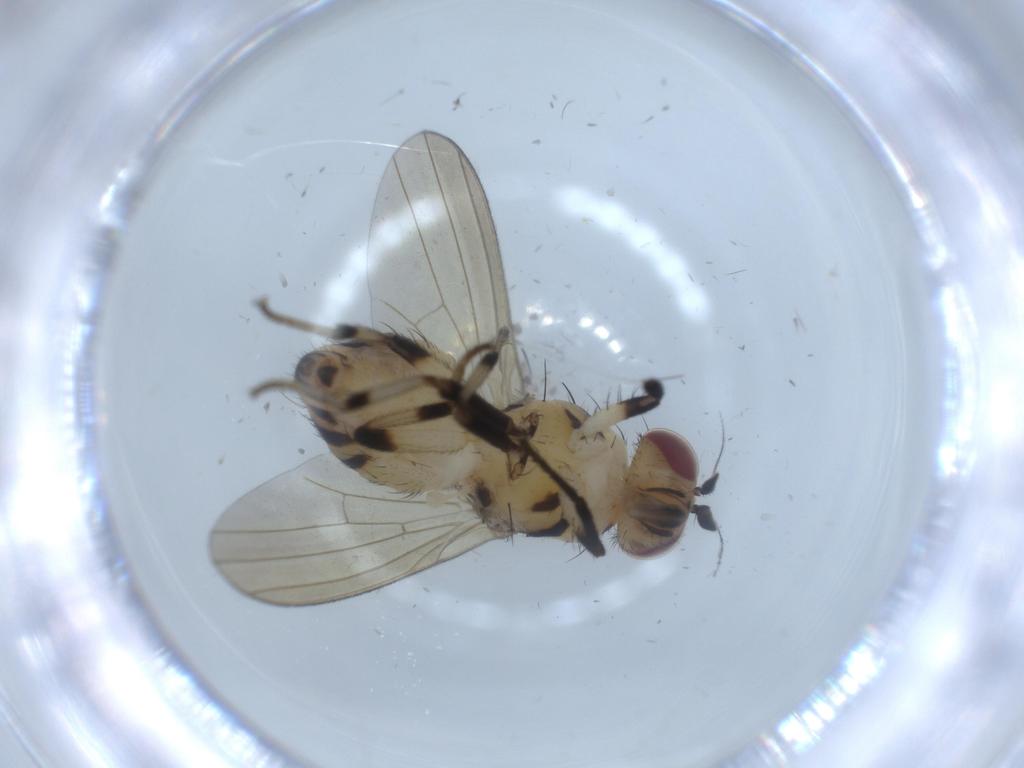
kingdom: Animalia
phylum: Arthropoda
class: Insecta
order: Diptera
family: Lauxaniidae
